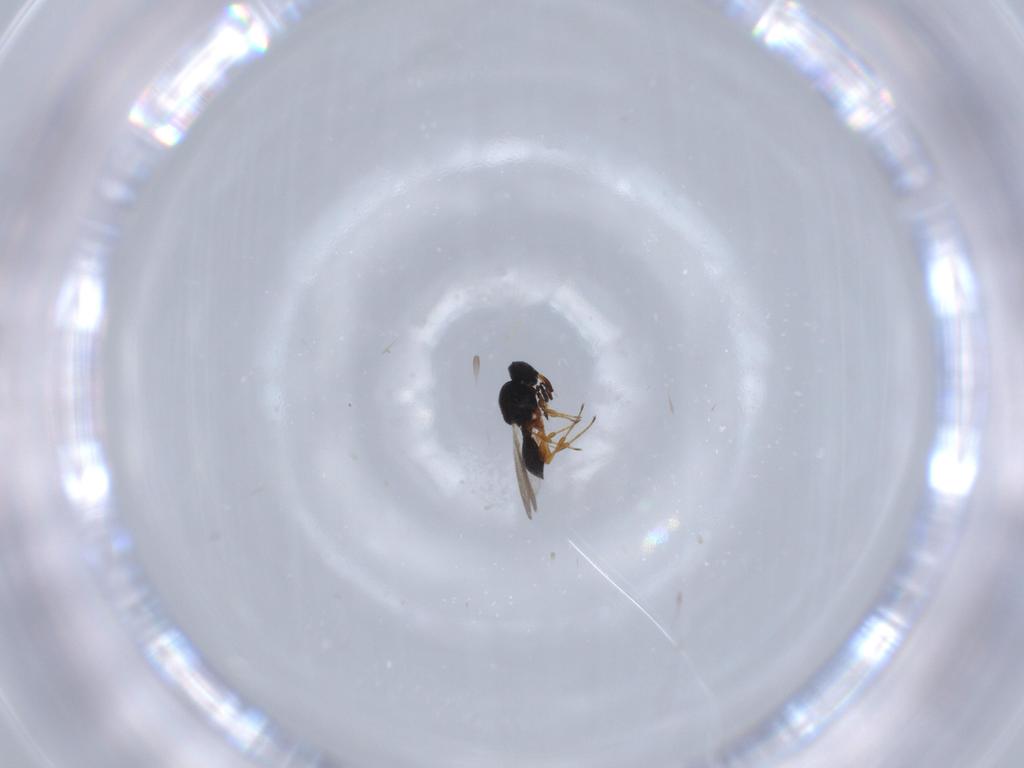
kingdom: Animalia
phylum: Arthropoda
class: Insecta
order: Hymenoptera
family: Platygastridae
